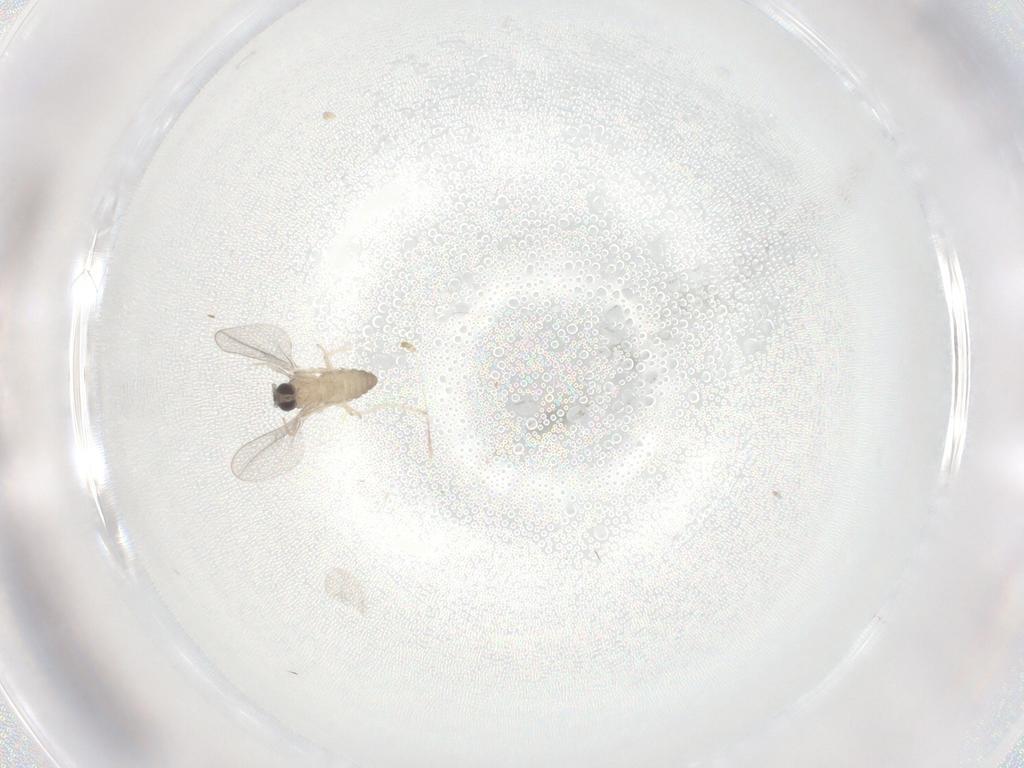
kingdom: Animalia
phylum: Arthropoda
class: Insecta
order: Diptera
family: Cecidomyiidae
